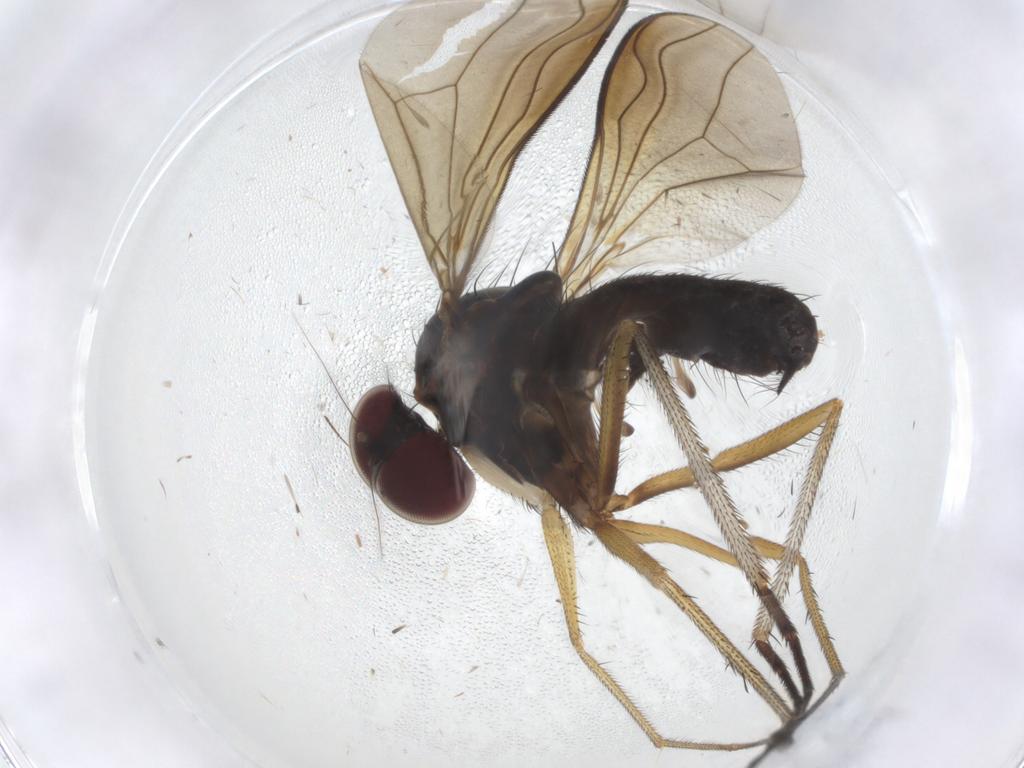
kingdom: Animalia
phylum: Arthropoda
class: Insecta
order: Diptera
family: Dolichopodidae
